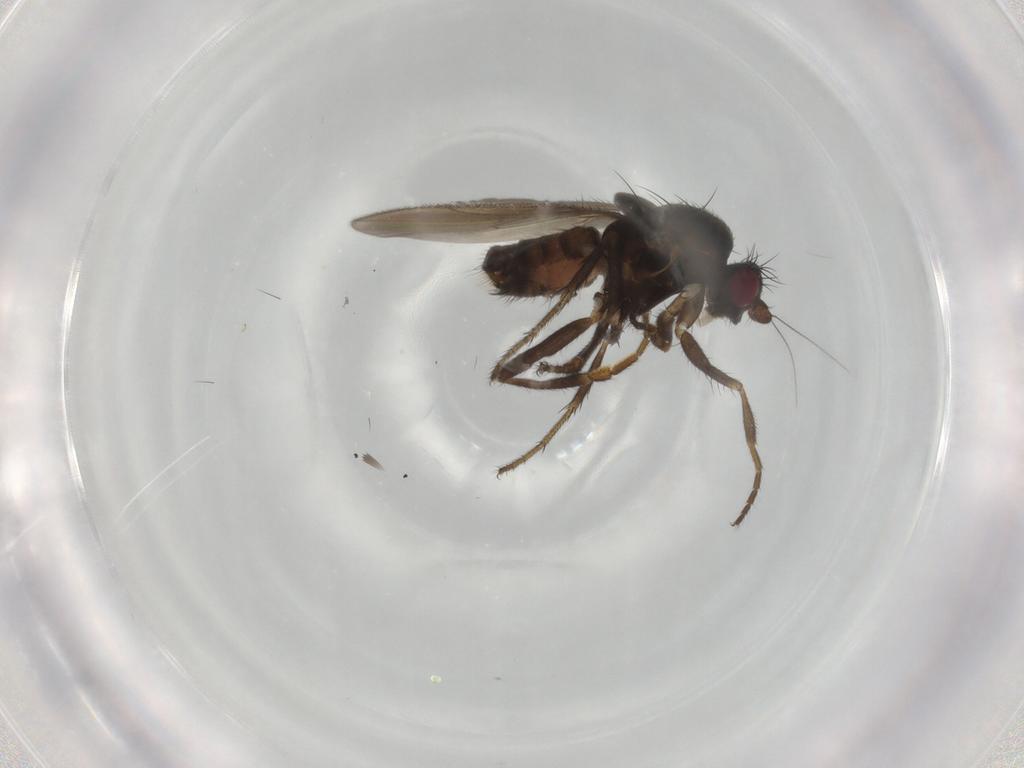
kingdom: Animalia
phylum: Arthropoda
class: Insecta
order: Diptera
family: Sphaeroceridae
